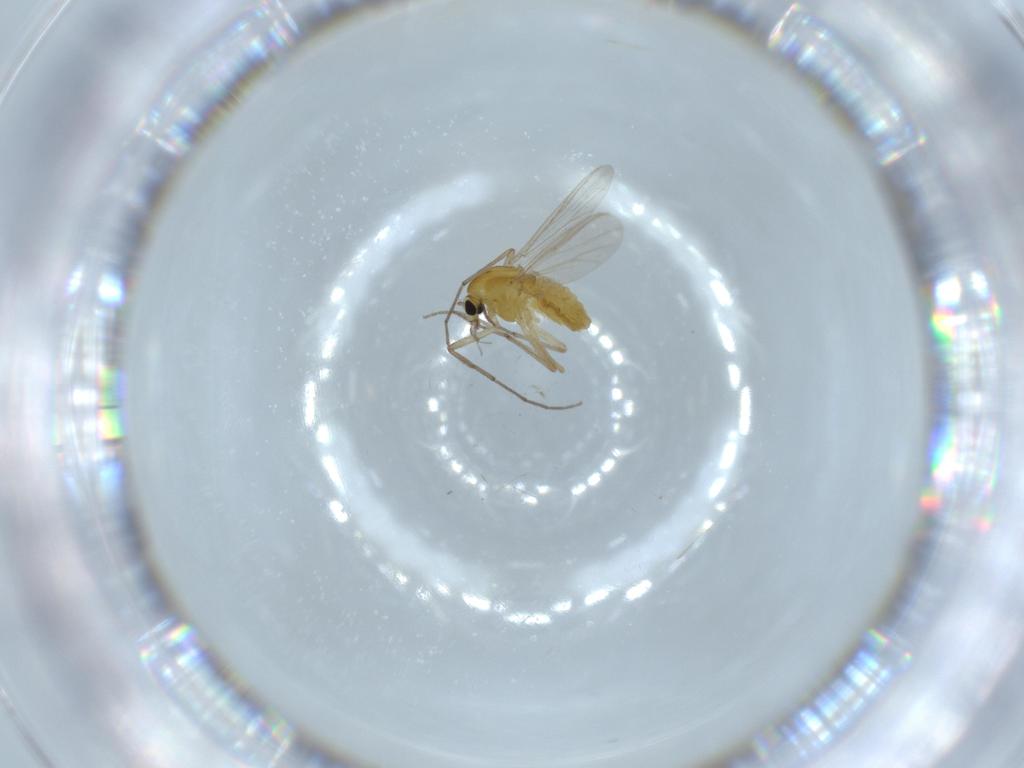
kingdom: Animalia
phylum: Arthropoda
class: Insecta
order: Diptera
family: Chironomidae
